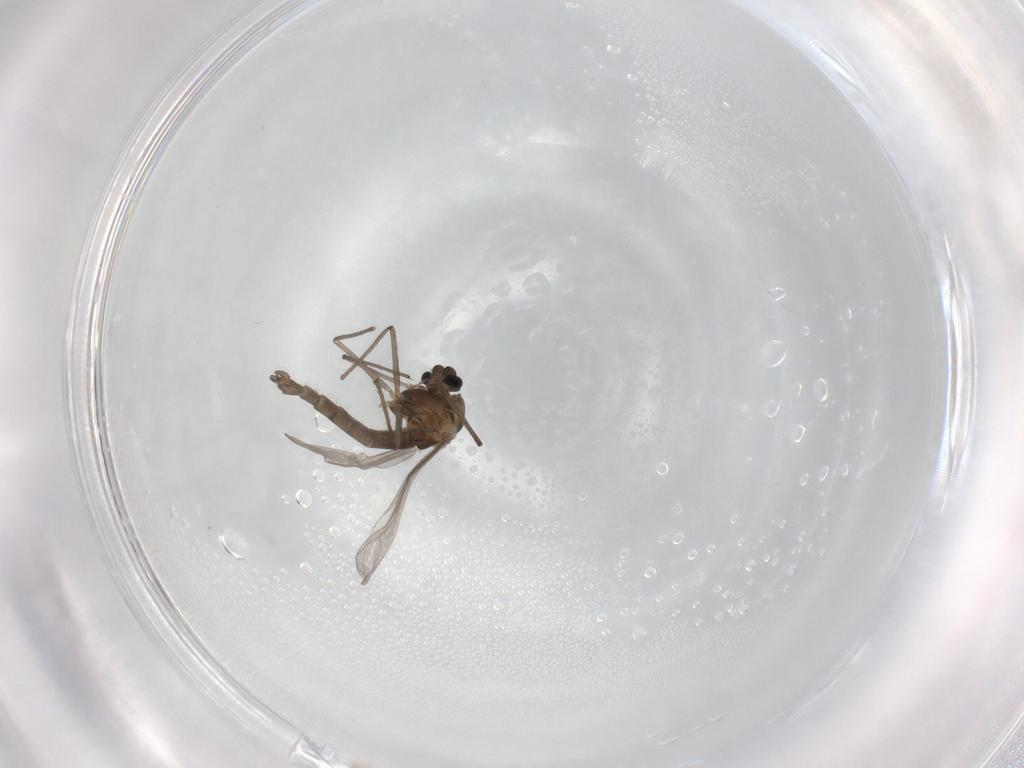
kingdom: Animalia
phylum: Arthropoda
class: Insecta
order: Diptera
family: Chironomidae
